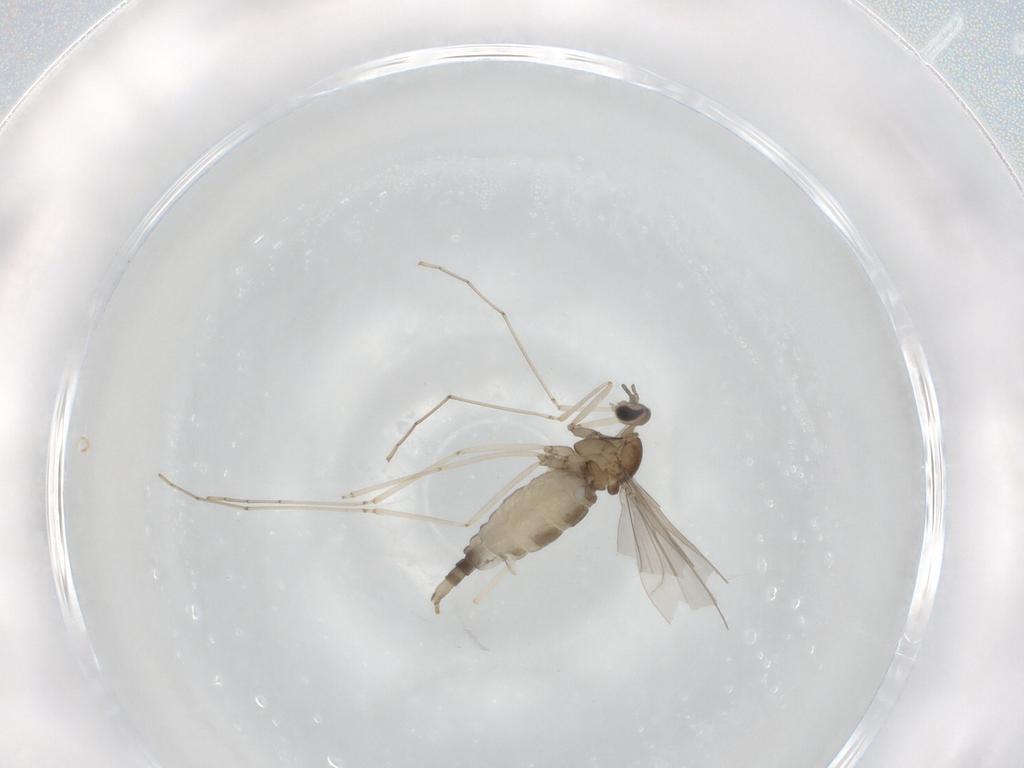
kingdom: Animalia
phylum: Arthropoda
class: Insecta
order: Diptera
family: Cecidomyiidae
